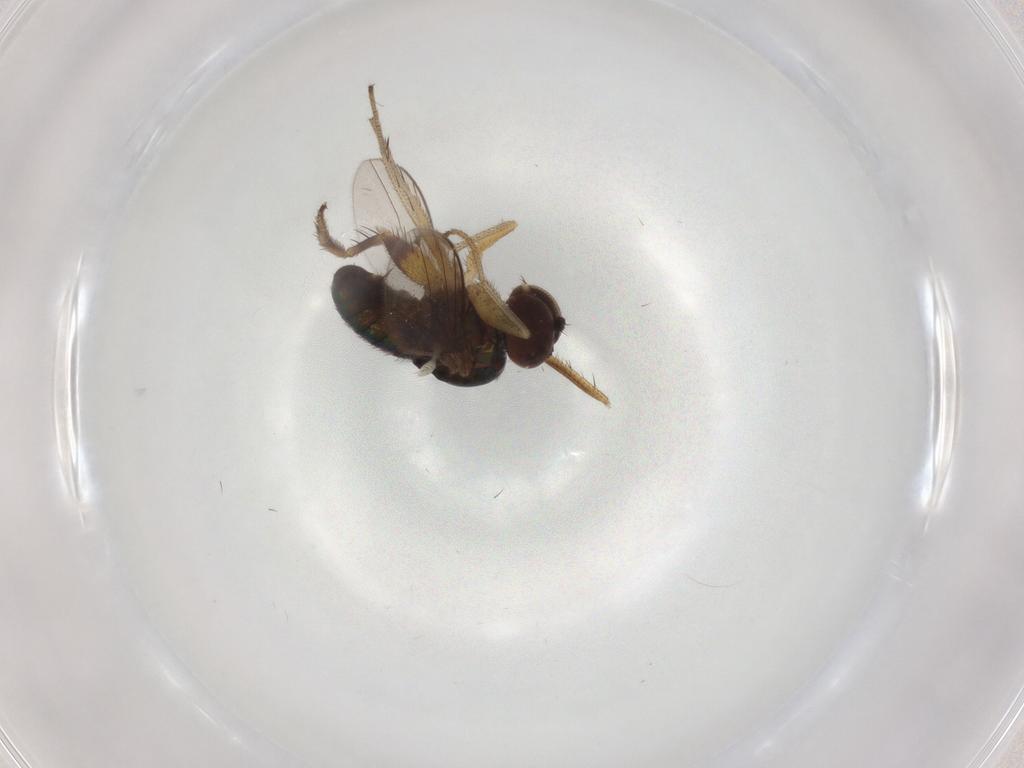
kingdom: Animalia
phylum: Arthropoda
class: Insecta
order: Diptera
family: Dolichopodidae
